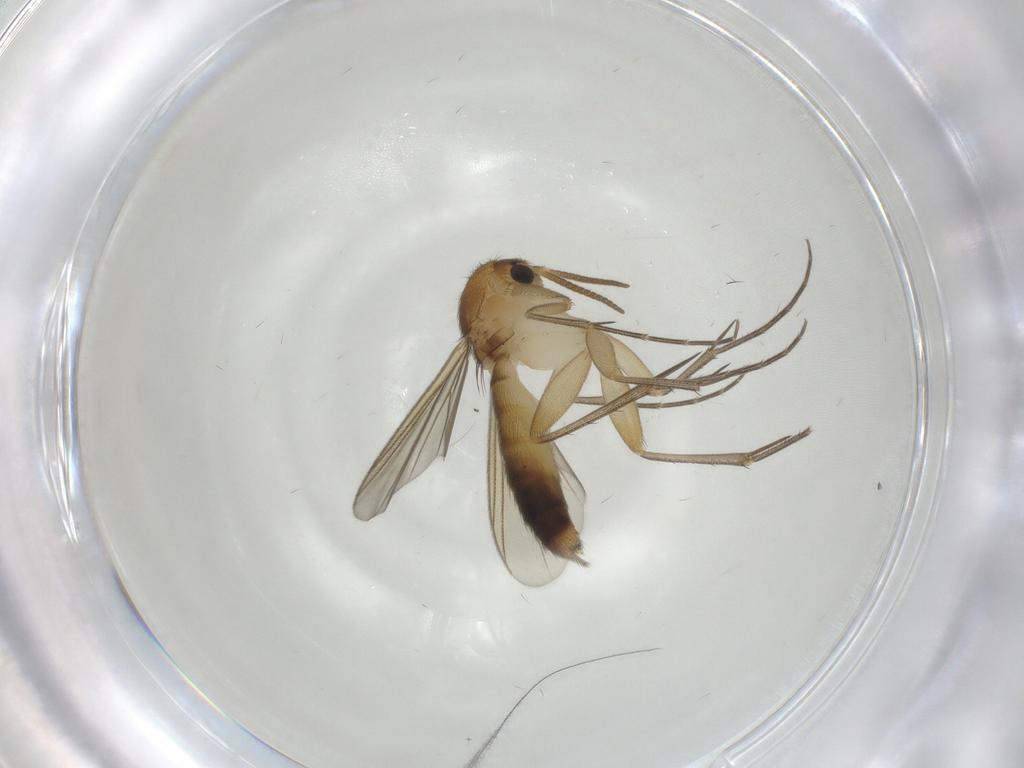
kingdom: Animalia
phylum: Arthropoda
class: Insecta
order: Diptera
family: Mycetophilidae
